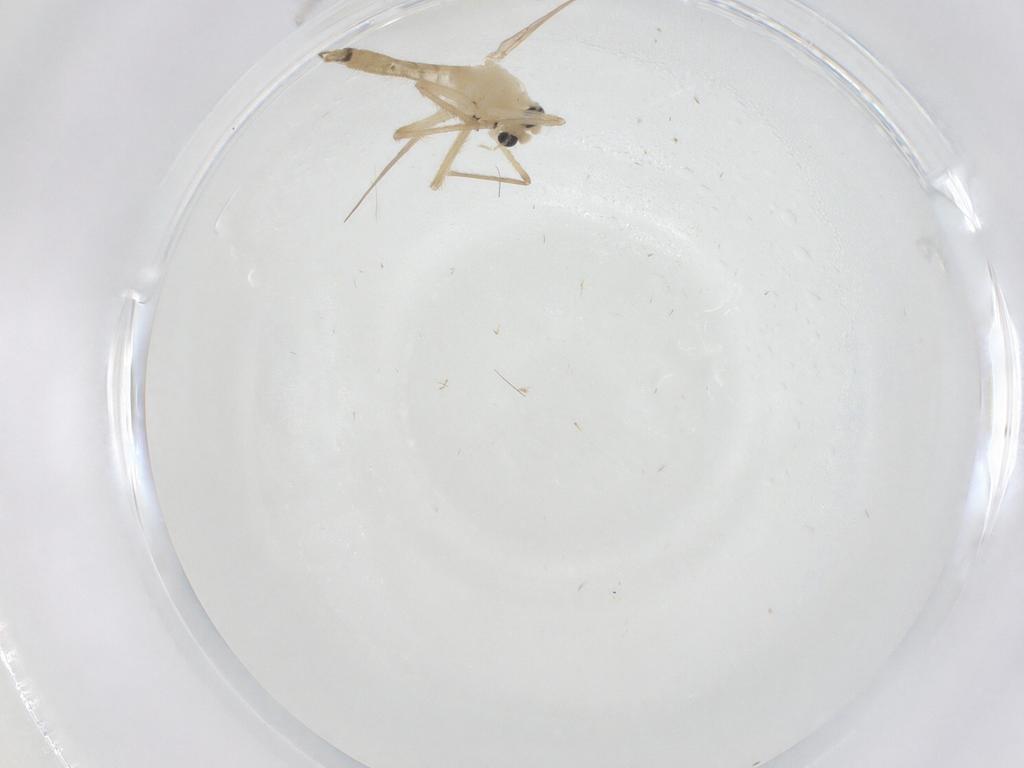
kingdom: Animalia
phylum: Arthropoda
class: Insecta
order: Diptera
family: Chironomidae
